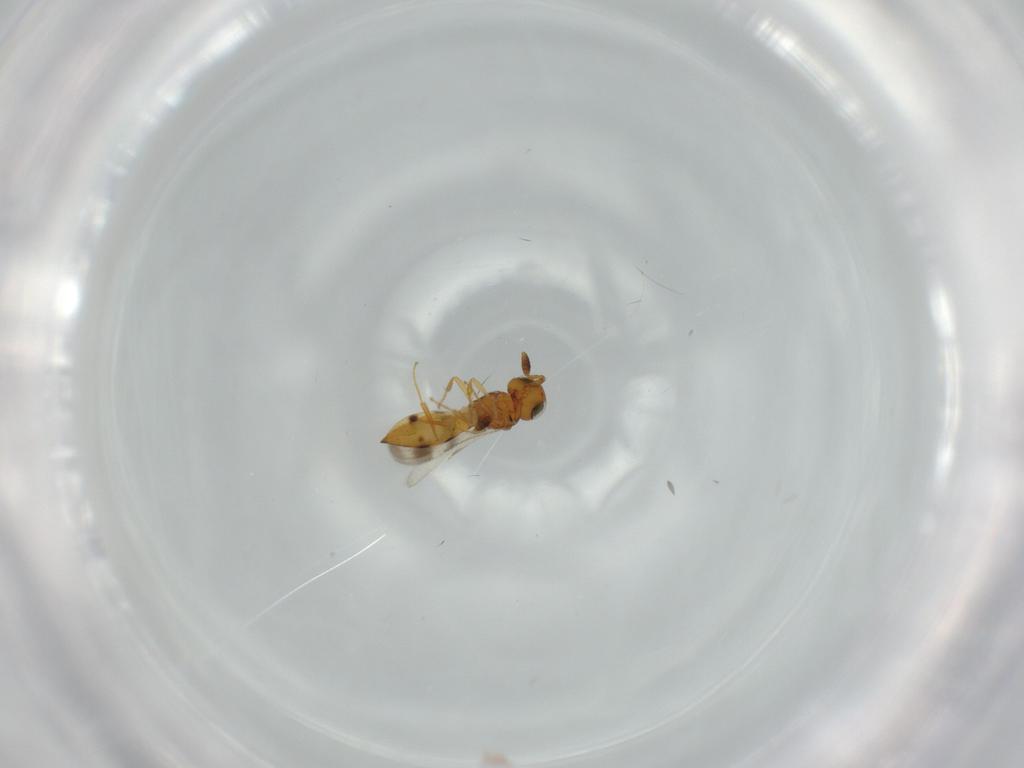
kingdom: Animalia
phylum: Arthropoda
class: Insecta
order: Hymenoptera
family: Scelionidae
